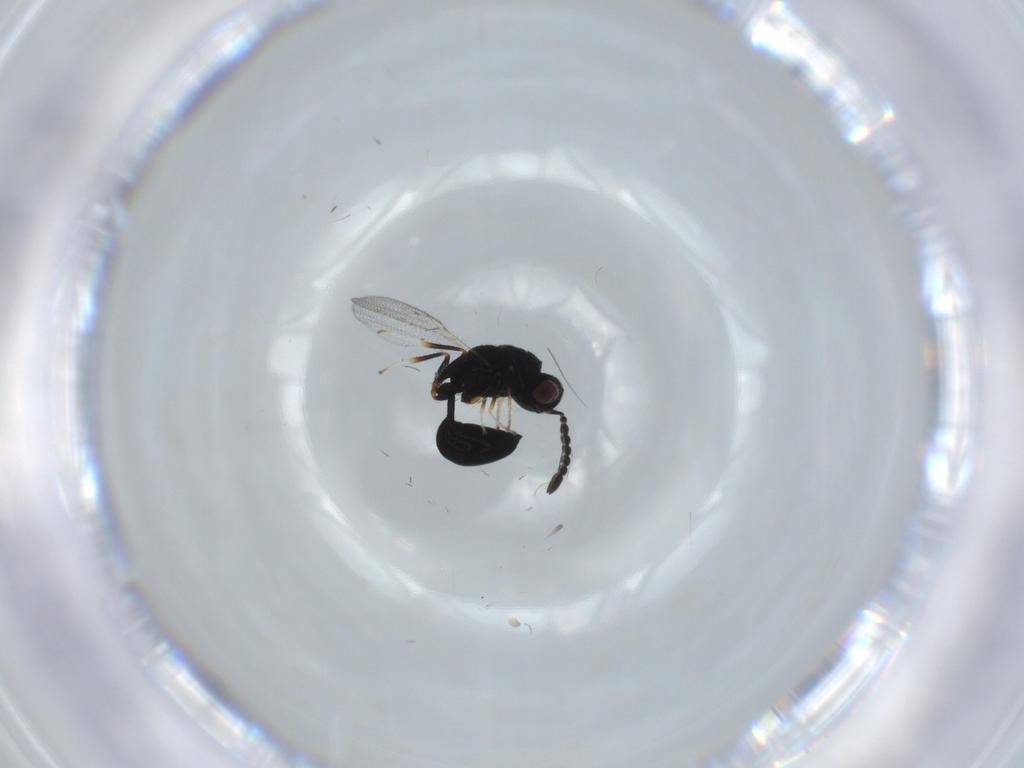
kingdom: Animalia
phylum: Arthropoda
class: Insecta
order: Hymenoptera
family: Eurytomidae
